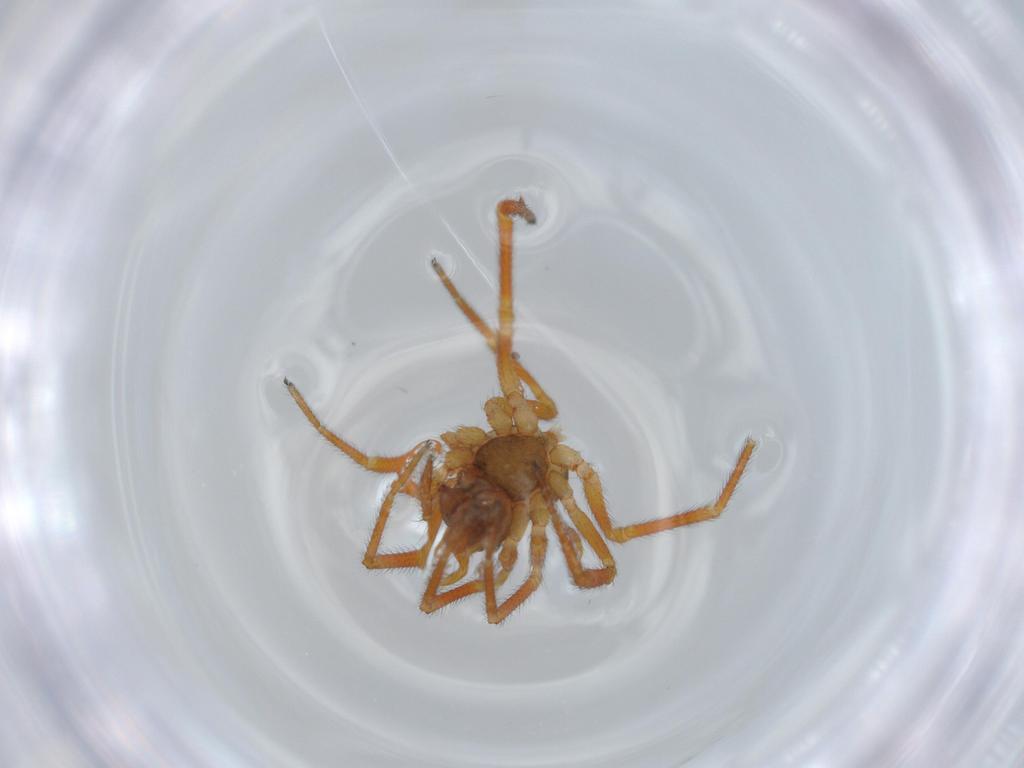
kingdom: Animalia
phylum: Arthropoda
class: Arachnida
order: Araneae
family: Linyphiidae
